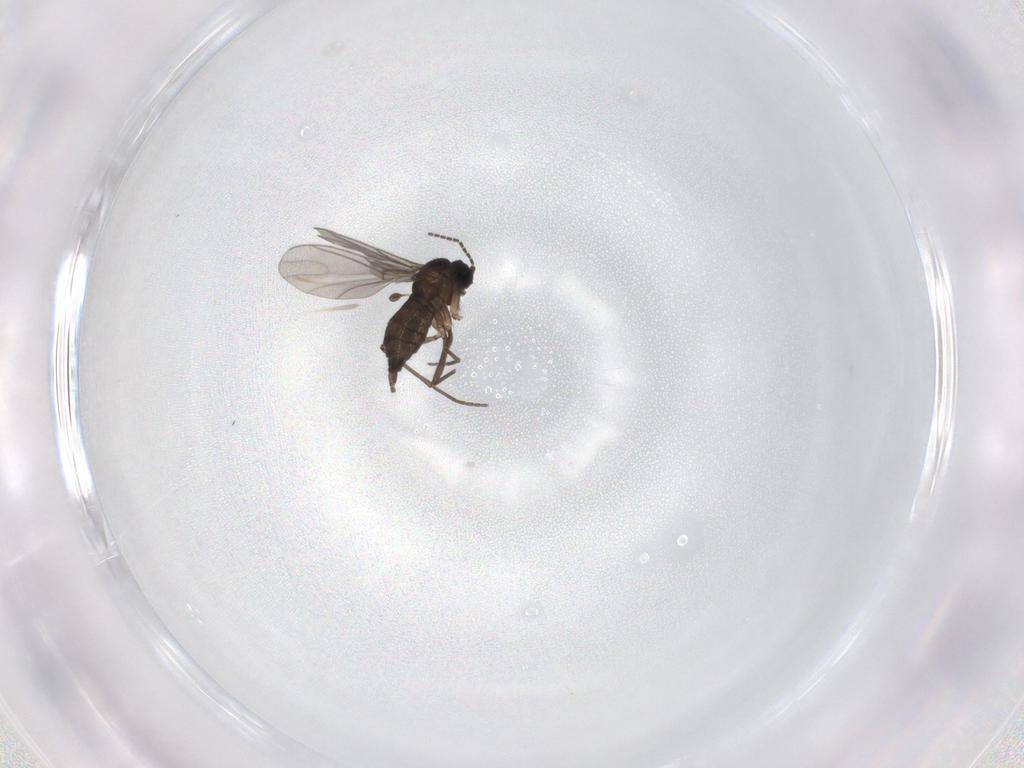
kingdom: Animalia
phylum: Arthropoda
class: Insecta
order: Diptera
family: Sciaridae
